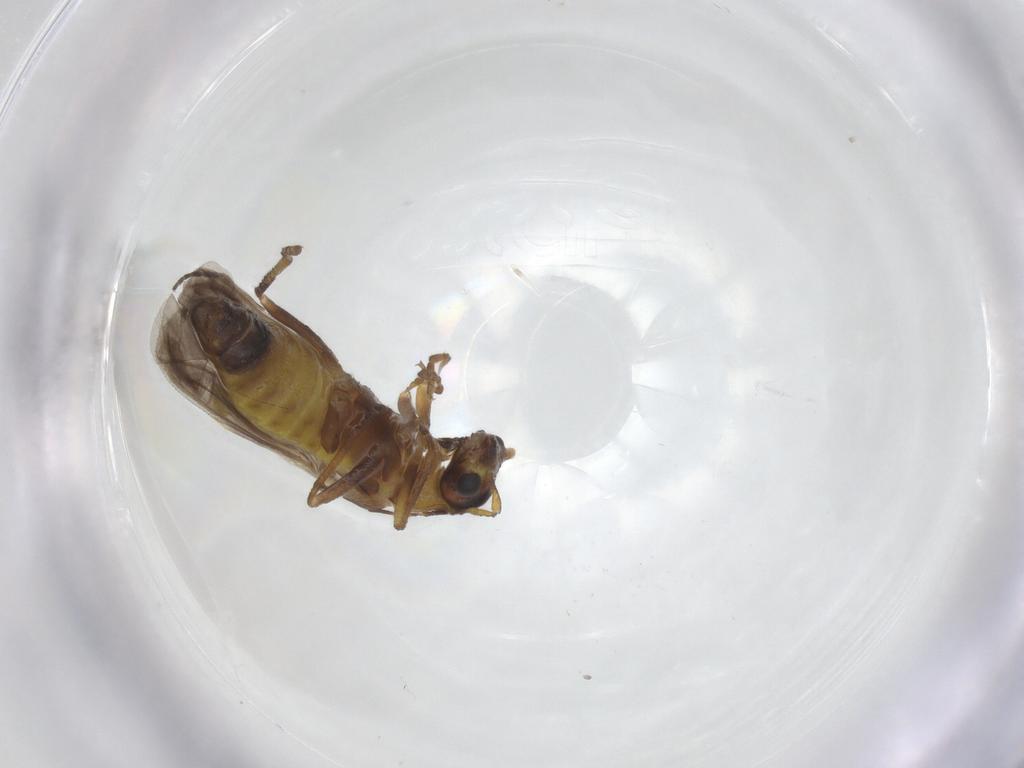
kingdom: Animalia
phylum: Arthropoda
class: Insecta
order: Coleoptera
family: Cantharidae
